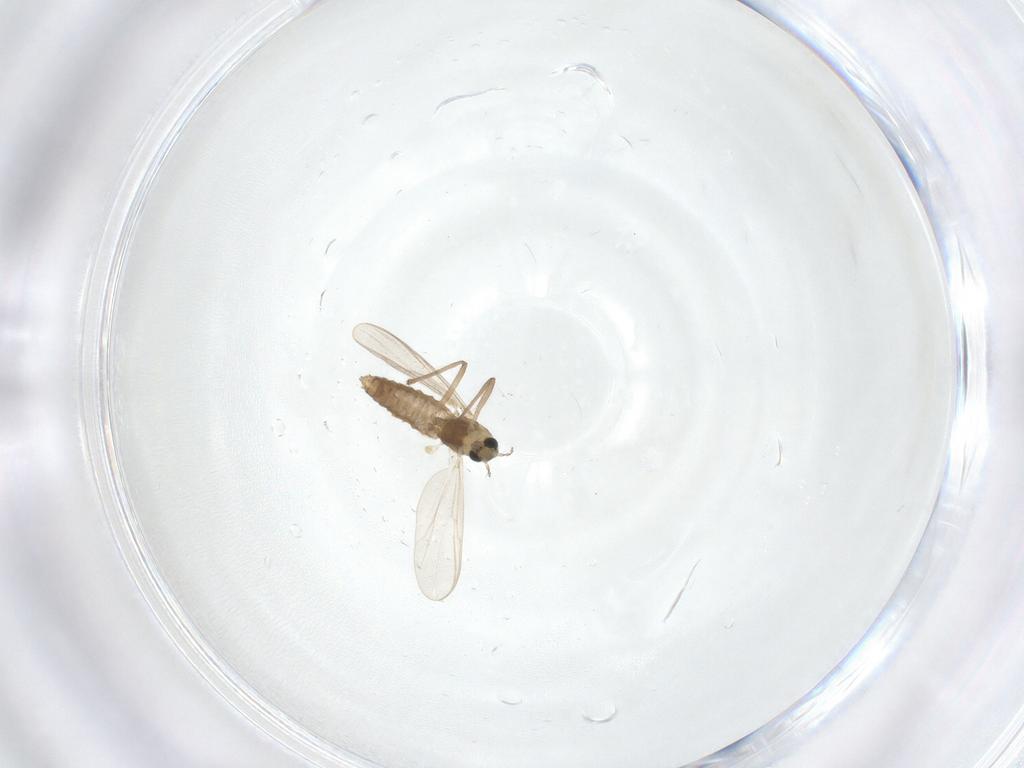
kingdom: Animalia
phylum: Arthropoda
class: Insecta
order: Diptera
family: Chironomidae
